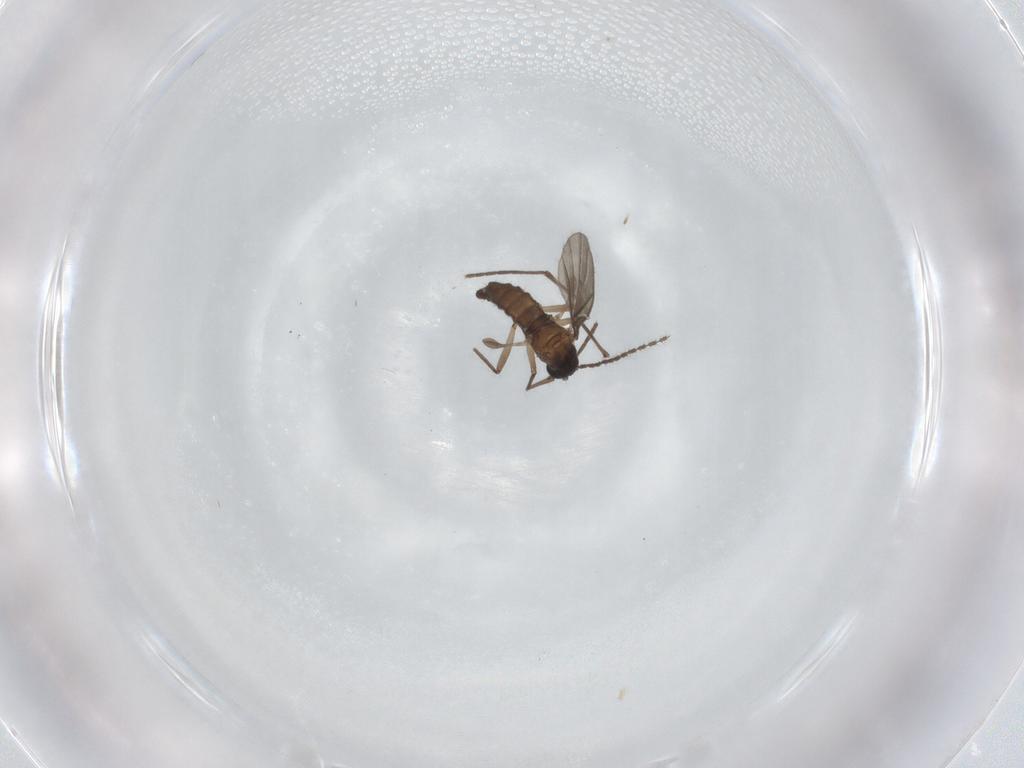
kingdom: Animalia
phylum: Arthropoda
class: Insecta
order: Diptera
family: Sciaridae
